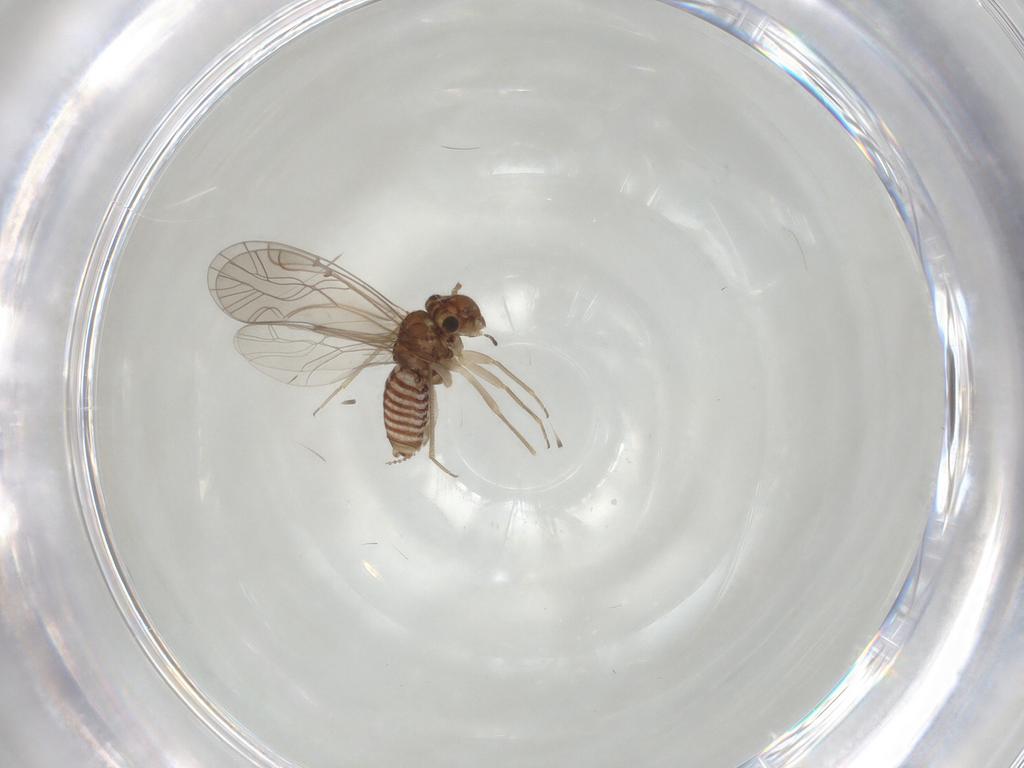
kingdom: Animalia
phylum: Arthropoda
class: Insecta
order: Psocodea
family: Lachesillidae
